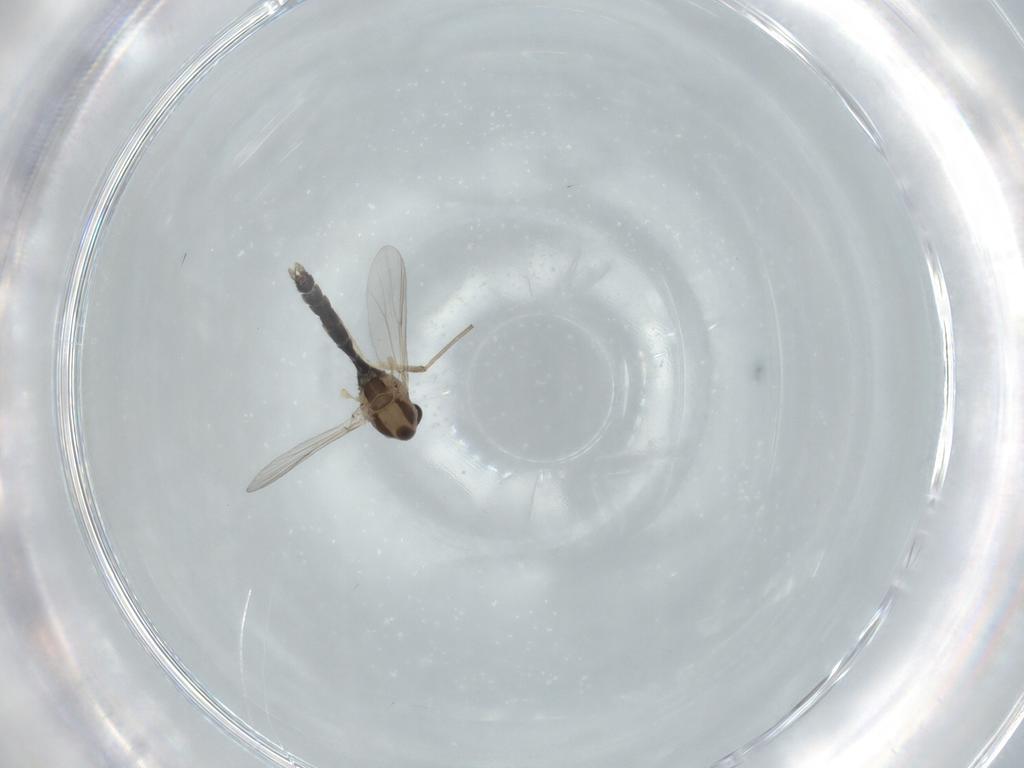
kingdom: Animalia
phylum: Arthropoda
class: Insecta
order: Diptera
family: Chironomidae
